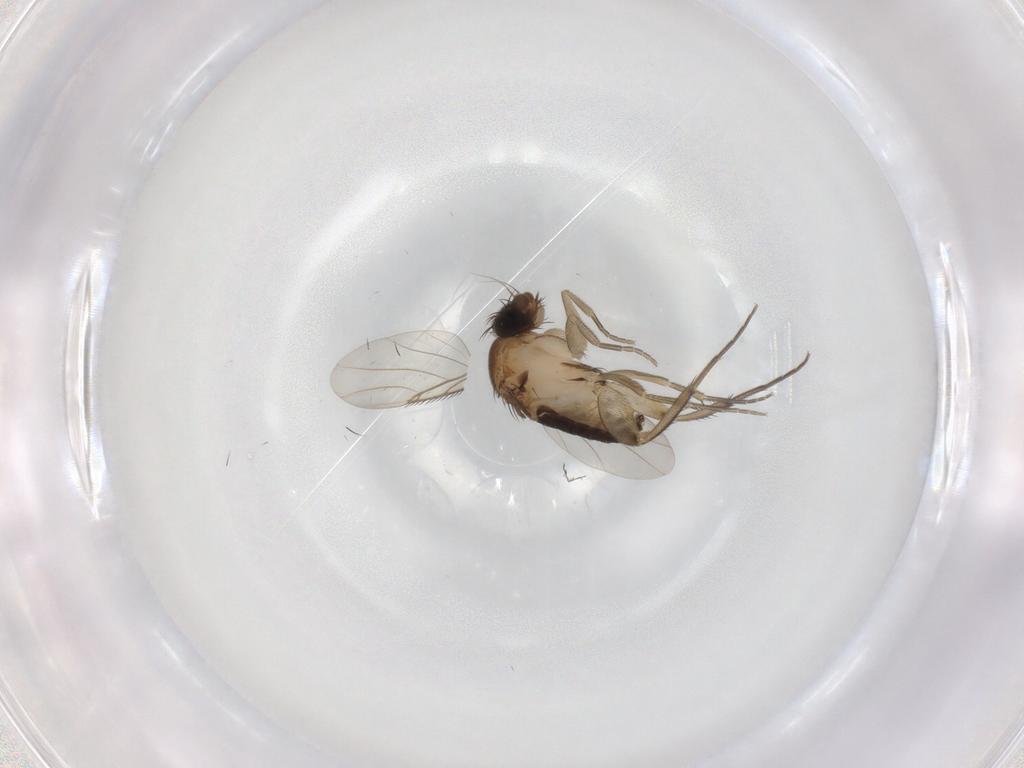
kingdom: Animalia
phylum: Arthropoda
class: Insecta
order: Diptera
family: Phoridae
